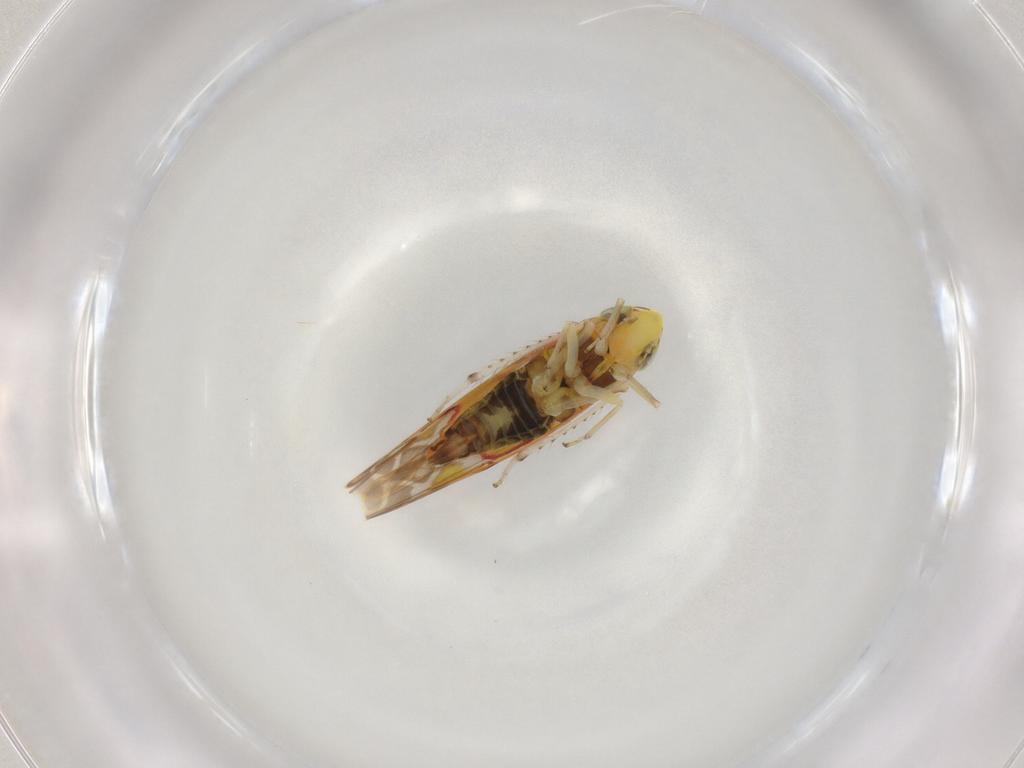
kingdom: Animalia
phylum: Arthropoda
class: Insecta
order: Hemiptera
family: Cicadellidae
